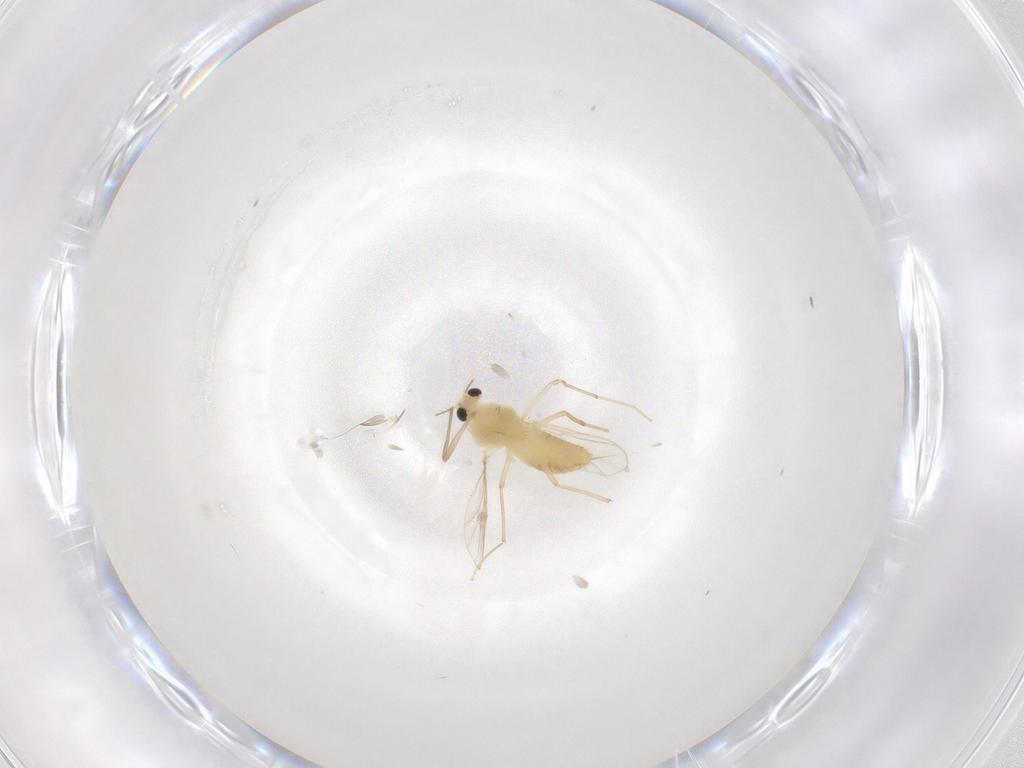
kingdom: Animalia
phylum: Arthropoda
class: Insecta
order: Diptera
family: Chironomidae
